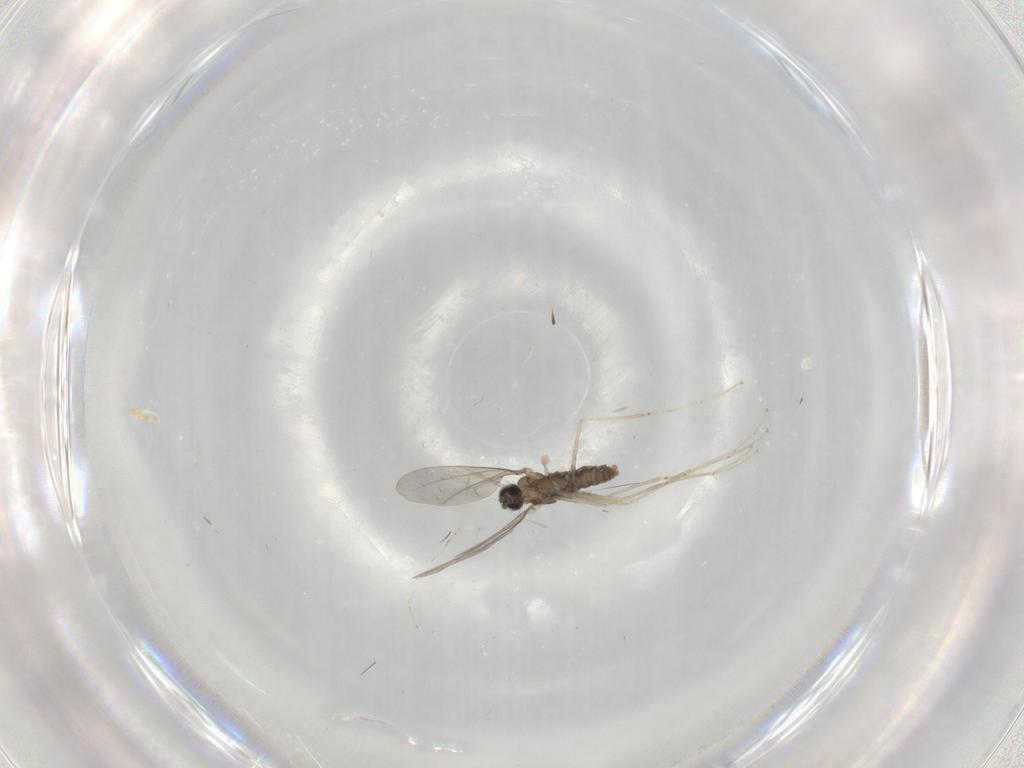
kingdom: Animalia
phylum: Arthropoda
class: Insecta
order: Diptera
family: Cecidomyiidae
